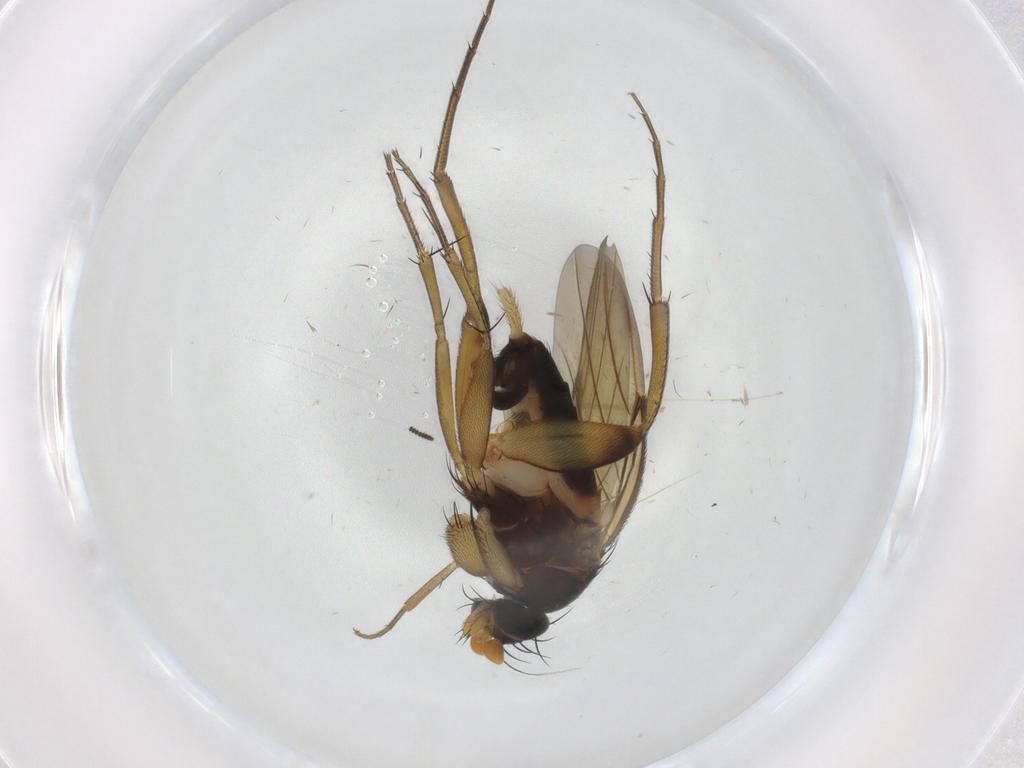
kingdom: Animalia
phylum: Arthropoda
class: Insecta
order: Diptera
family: Phoridae
